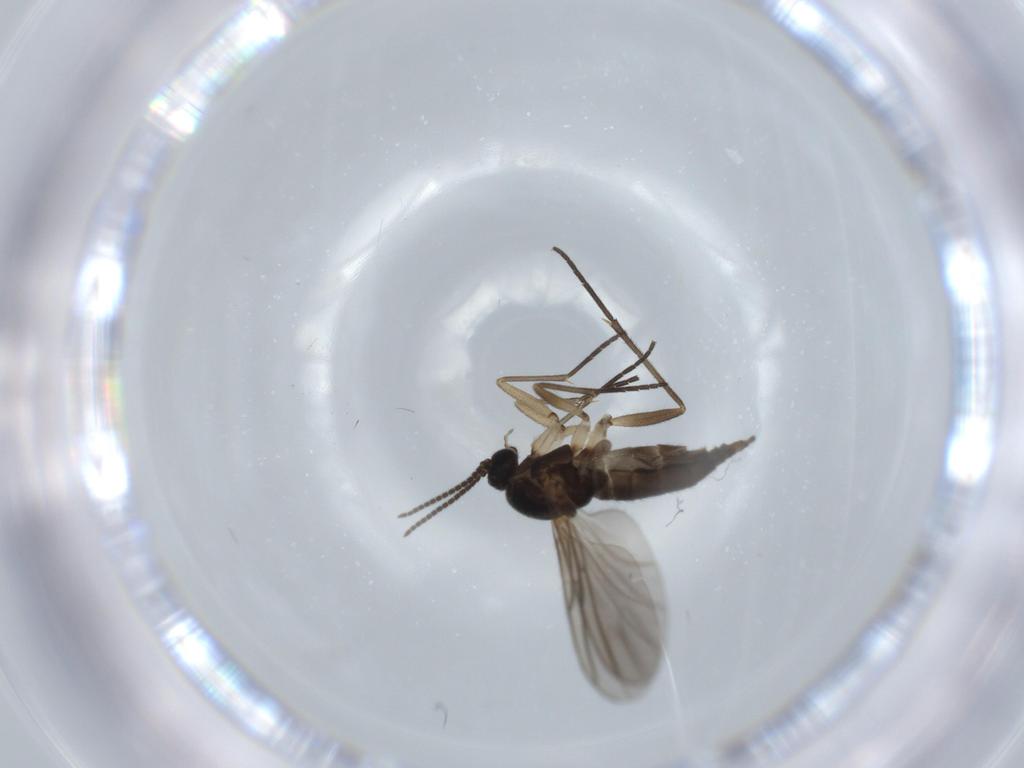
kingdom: Animalia
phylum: Arthropoda
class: Insecta
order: Diptera
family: Sciaridae
